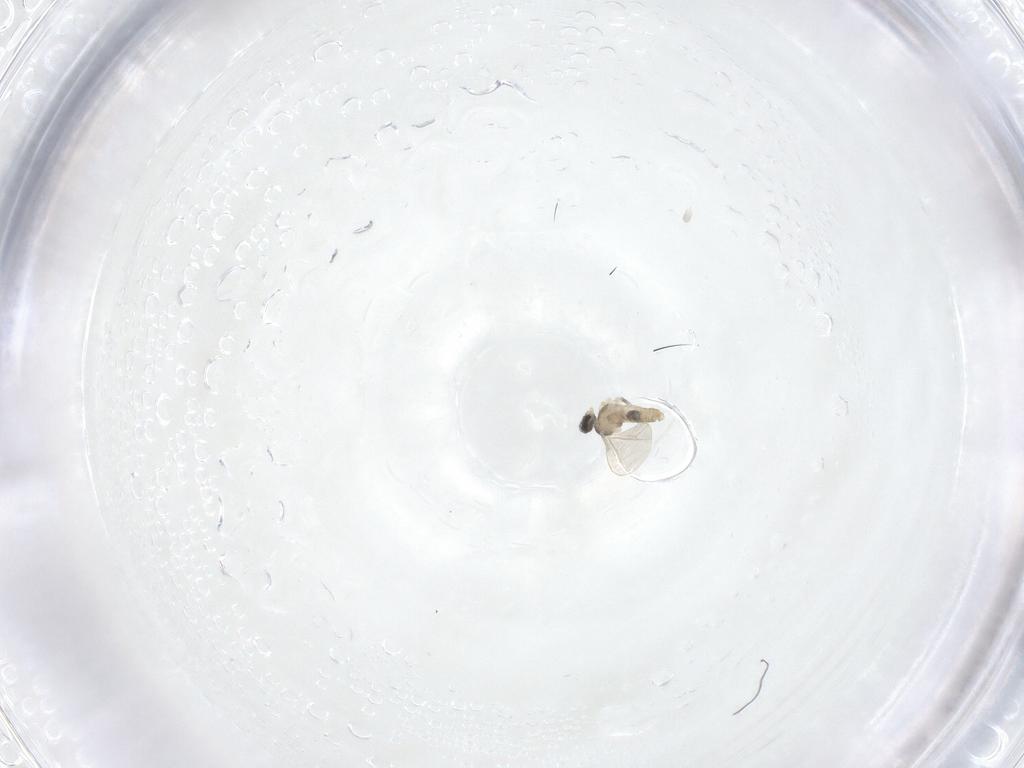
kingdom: Animalia
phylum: Arthropoda
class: Insecta
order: Diptera
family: Cecidomyiidae
